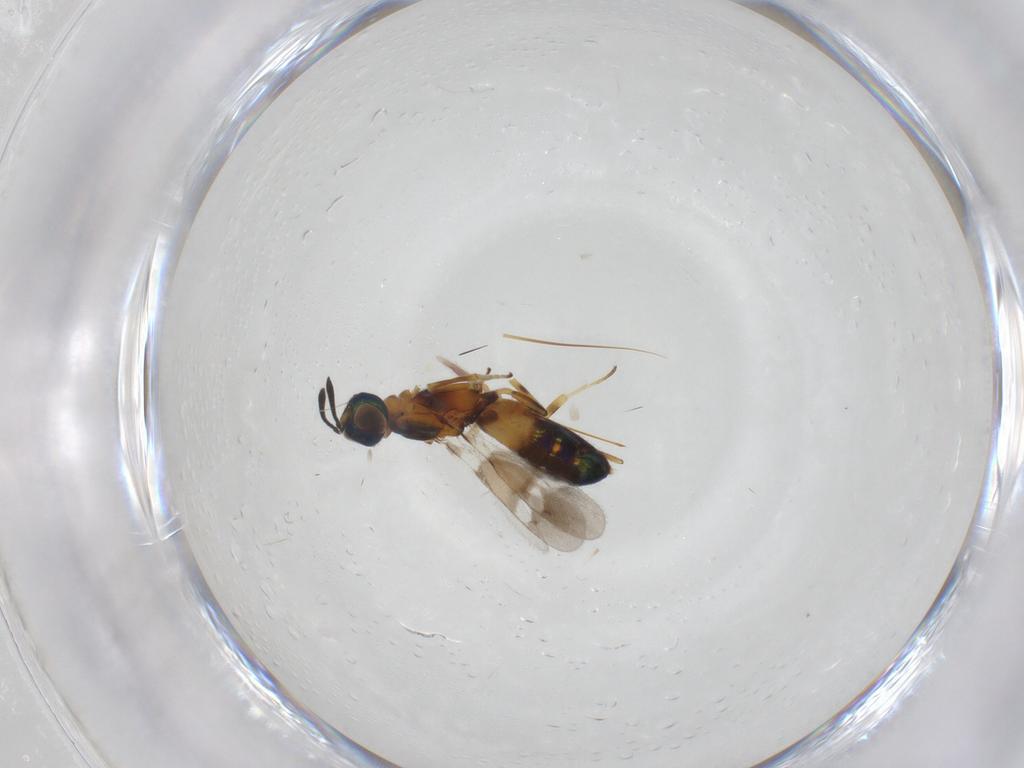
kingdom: Animalia
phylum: Arthropoda
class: Insecta
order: Hymenoptera
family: Eupelmidae
